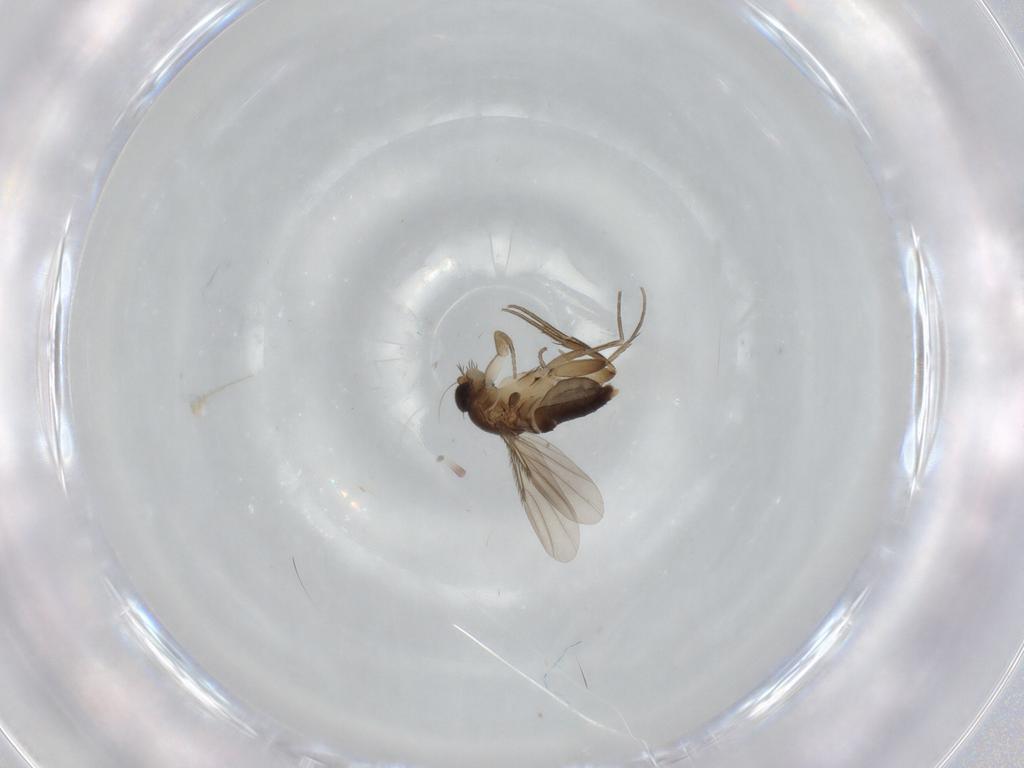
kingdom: Animalia
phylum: Arthropoda
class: Insecta
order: Diptera
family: Phoridae
